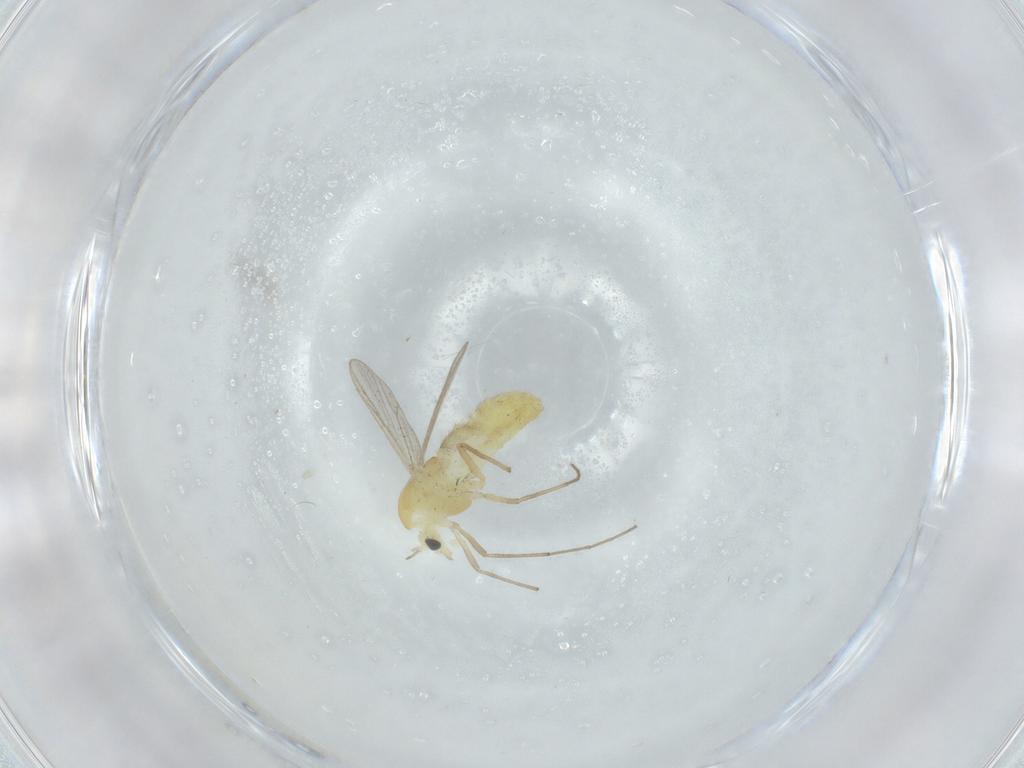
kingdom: Animalia
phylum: Arthropoda
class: Insecta
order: Diptera
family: Chironomidae
